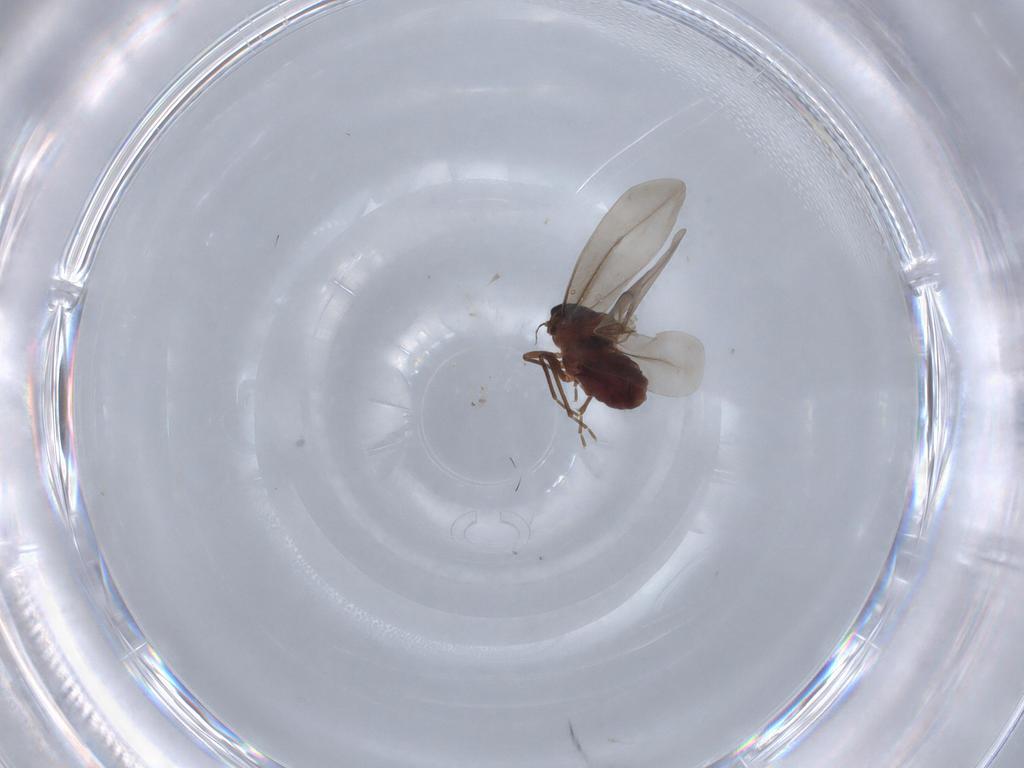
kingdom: Animalia
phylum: Arthropoda
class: Insecta
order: Hemiptera
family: Aleyrodidae
